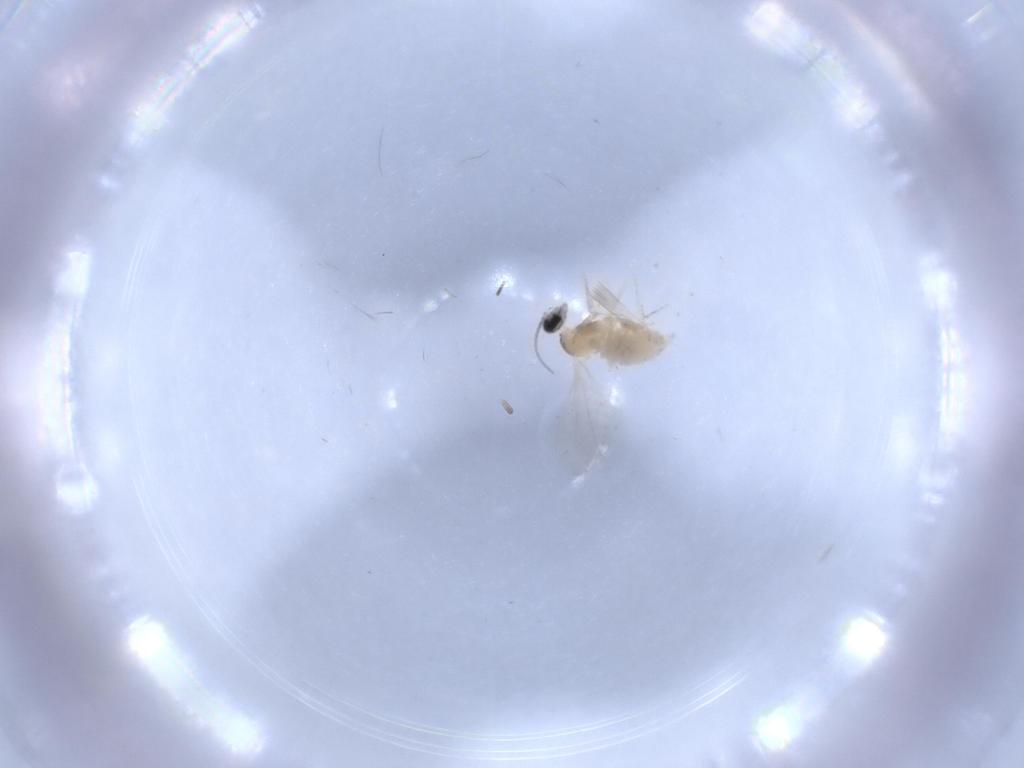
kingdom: Animalia
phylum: Arthropoda
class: Insecta
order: Diptera
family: Cecidomyiidae
